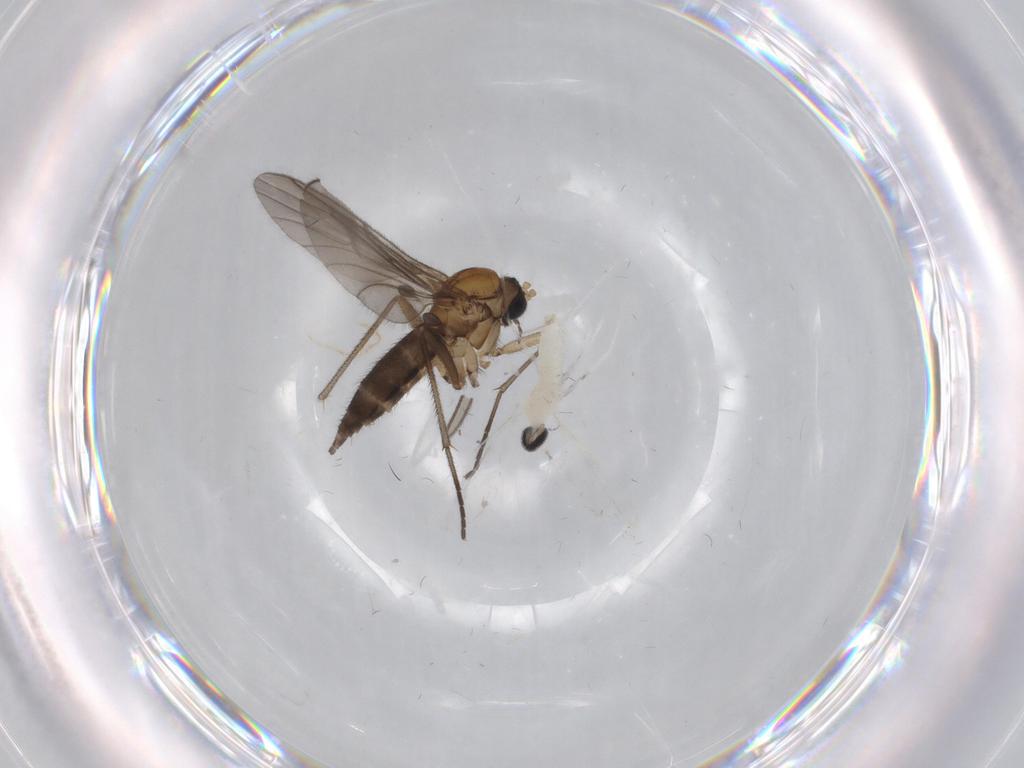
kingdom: Animalia
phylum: Arthropoda
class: Insecta
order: Diptera
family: Cecidomyiidae
